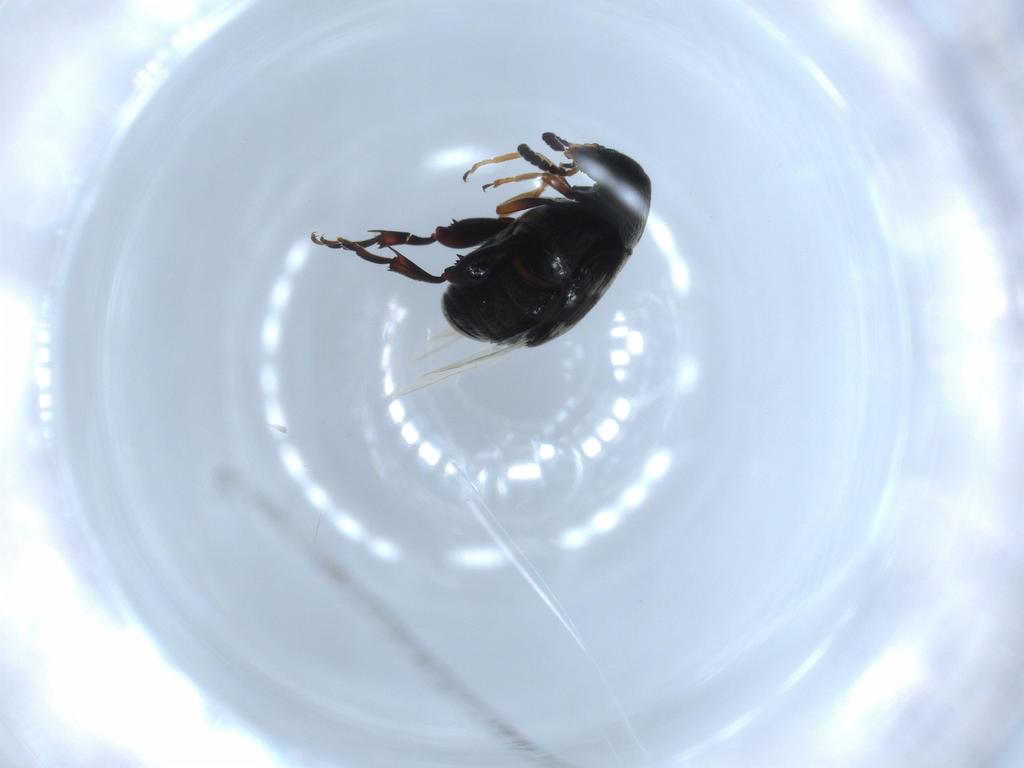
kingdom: Animalia
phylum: Arthropoda
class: Insecta
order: Coleoptera
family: Chrysomelidae
